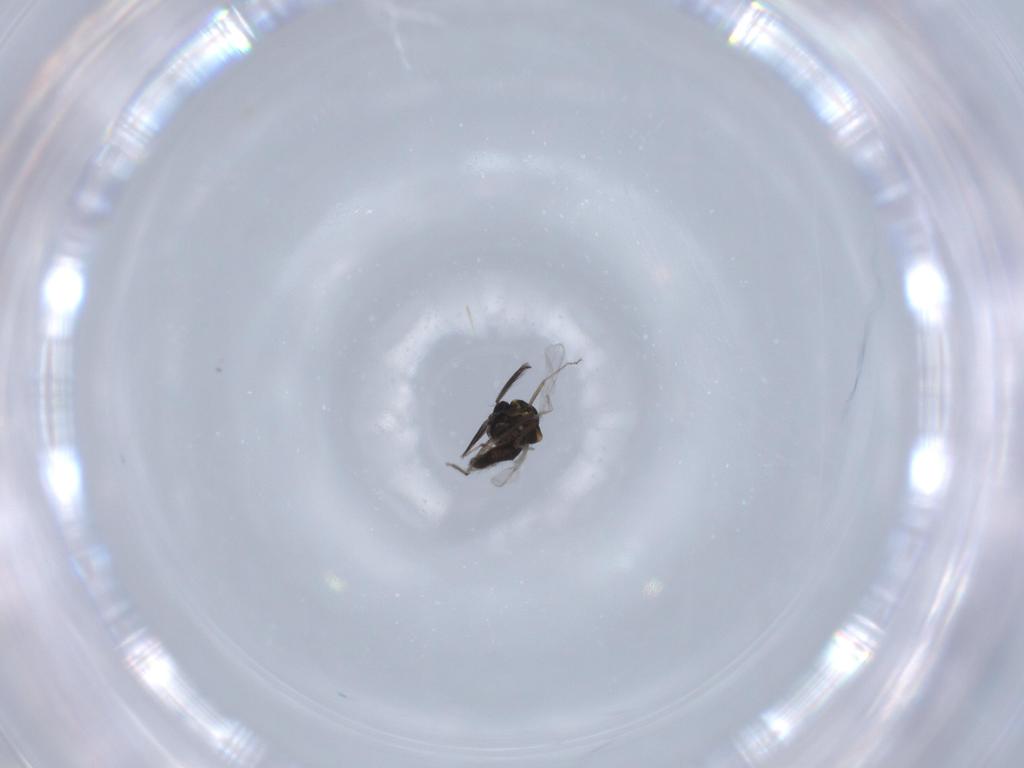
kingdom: Animalia
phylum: Arthropoda
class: Insecta
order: Diptera
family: Ceratopogonidae
